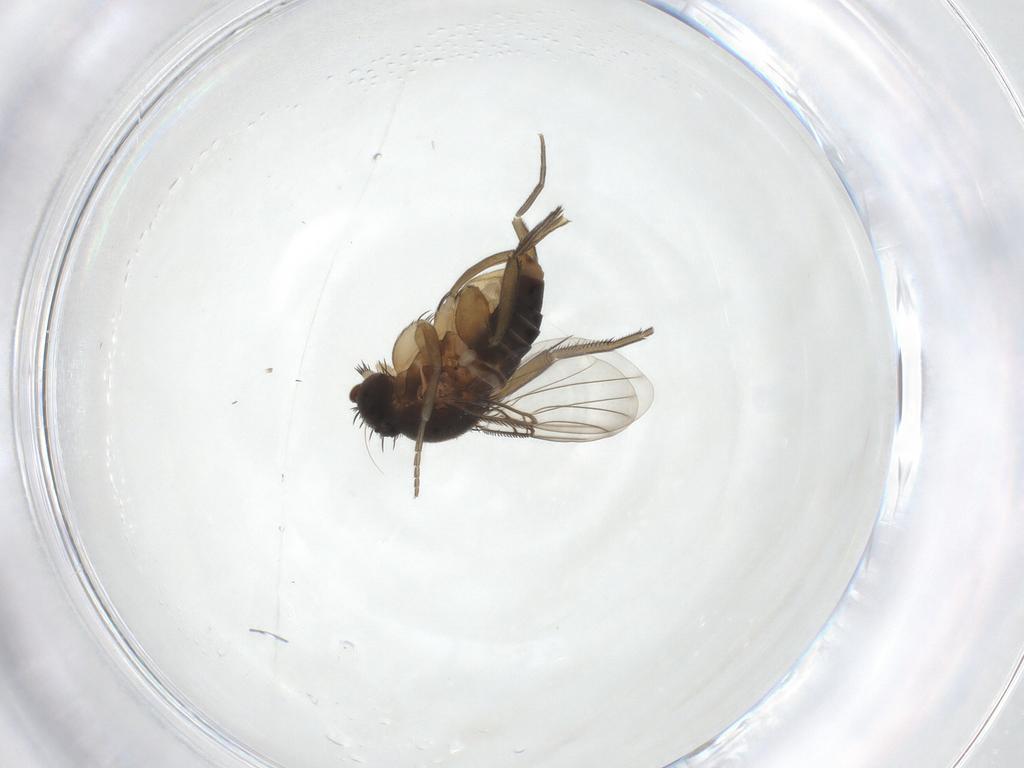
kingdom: Animalia
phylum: Arthropoda
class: Insecta
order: Diptera
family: Phoridae
